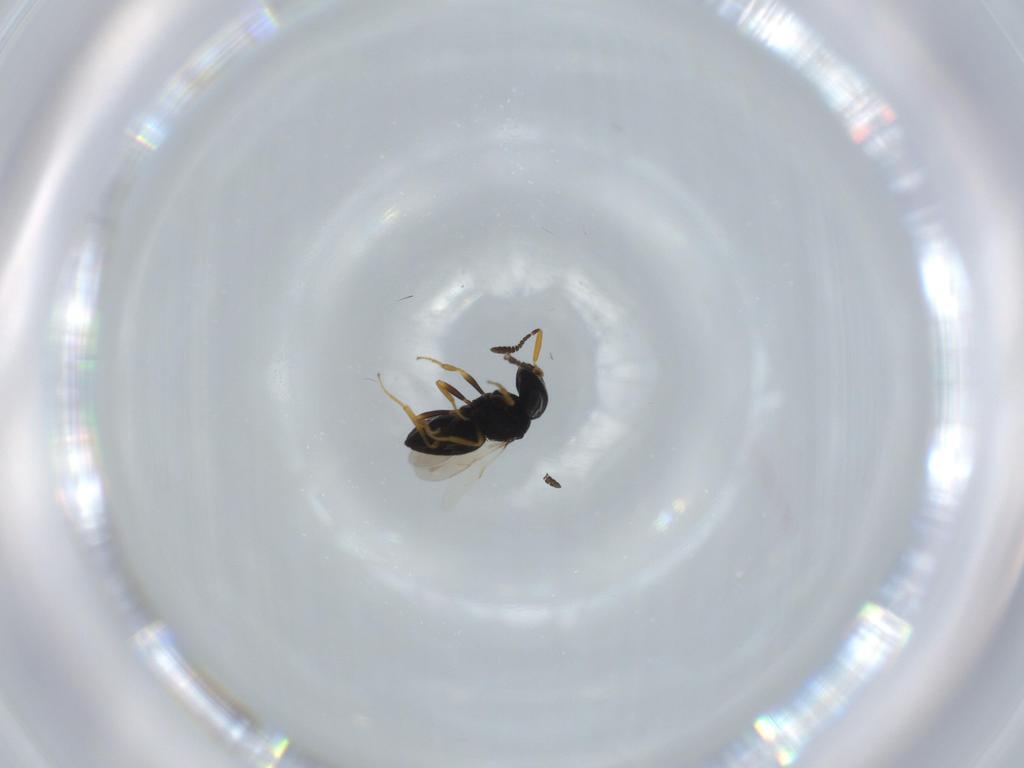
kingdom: Animalia
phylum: Arthropoda
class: Insecta
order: Hymenoptera
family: Scelionidae
